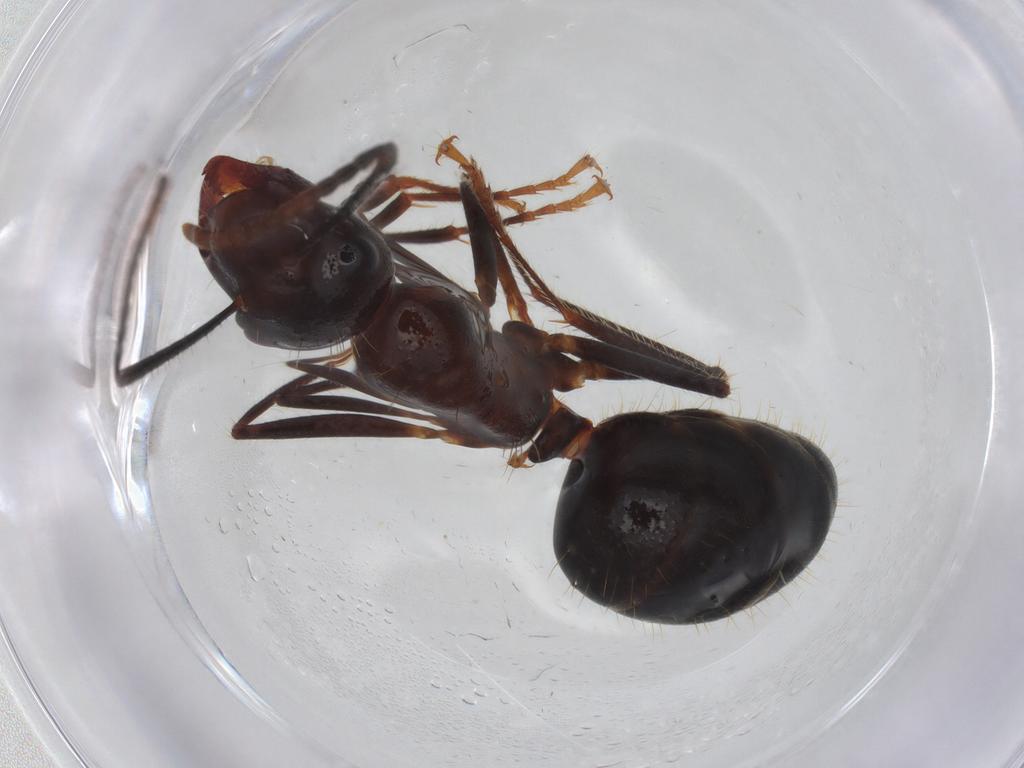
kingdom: Animalia
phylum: Arthropoda
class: Insecta
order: Hymenoptera
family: Formicidae
